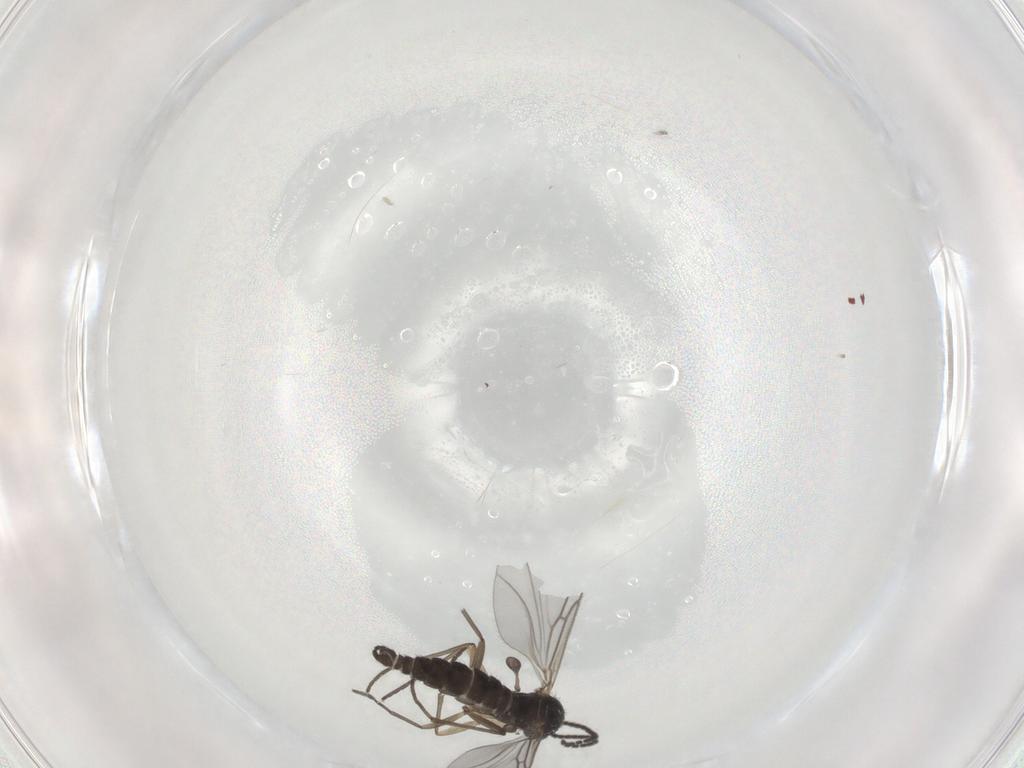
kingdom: Animalia
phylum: Arthropoda
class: Insecta
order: Diptera
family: Sciaridae
